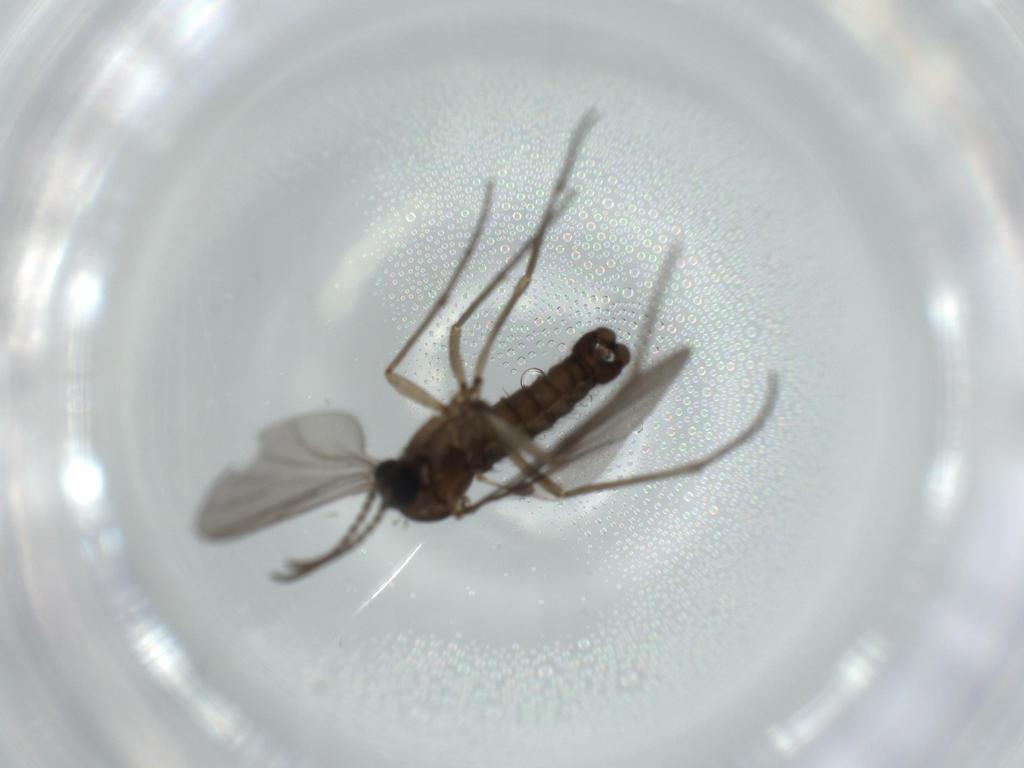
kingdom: Animalia
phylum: Arthropoda
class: Insecta
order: Diptera
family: Sciaridae
